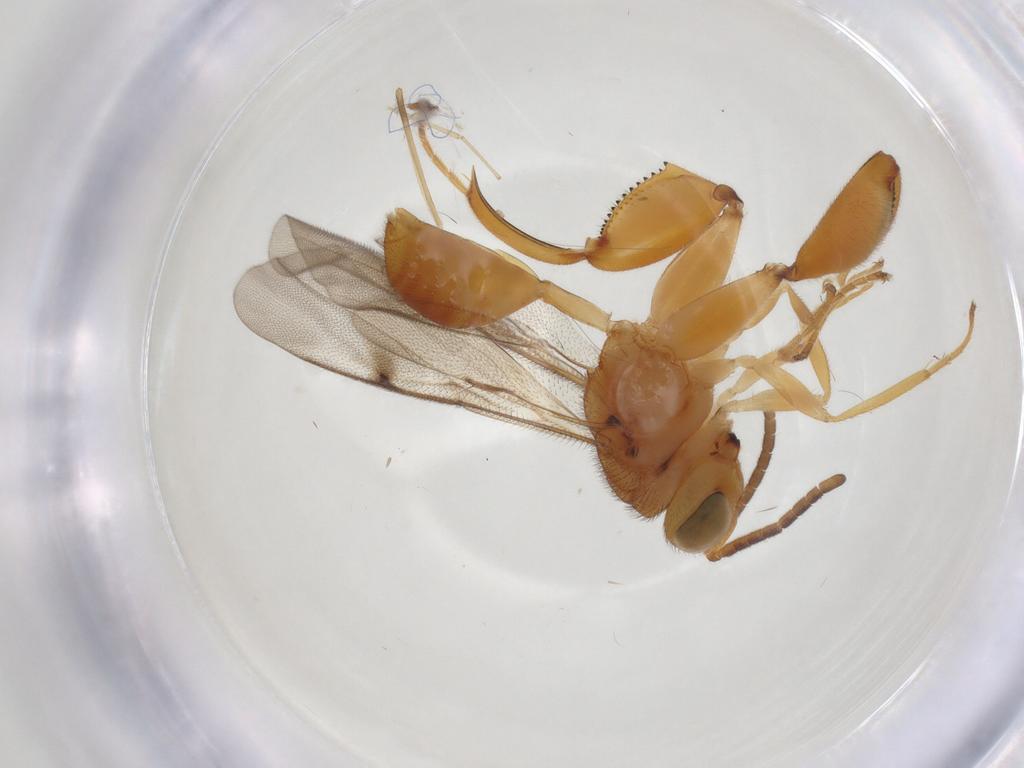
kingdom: Animalia
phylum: Arthropoda
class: Insecta
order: Hymenoptera
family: Chalcididae
